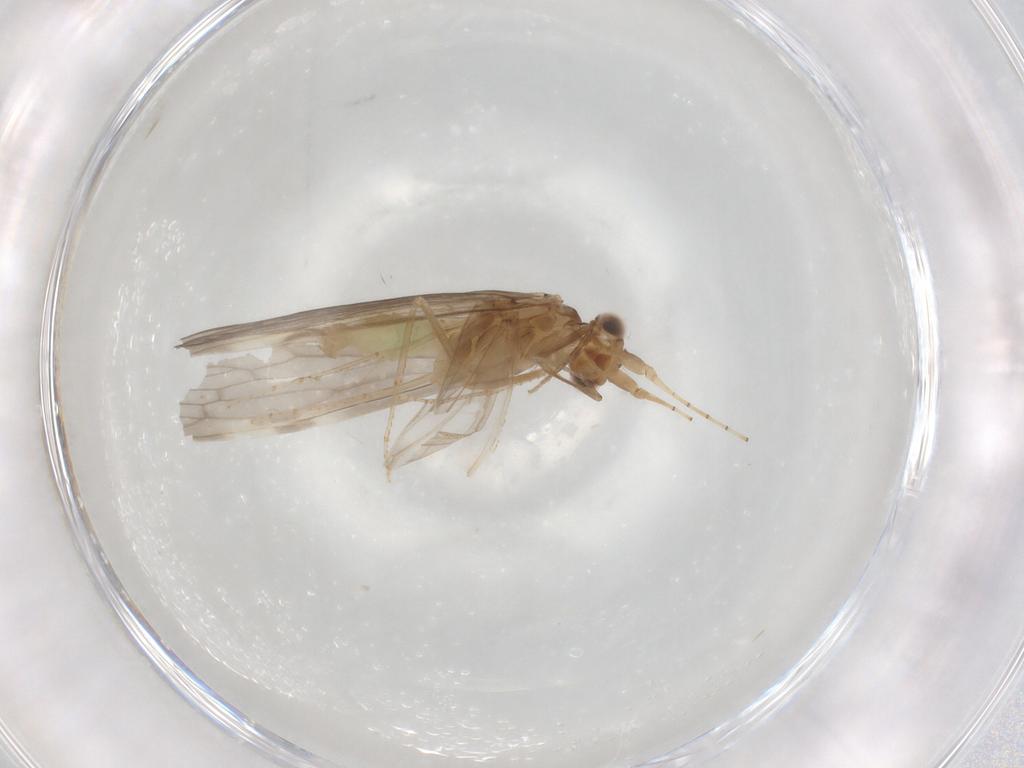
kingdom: Animalia
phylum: Arthropoda
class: Insecta
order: Trichoptera
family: Leptoceridae
